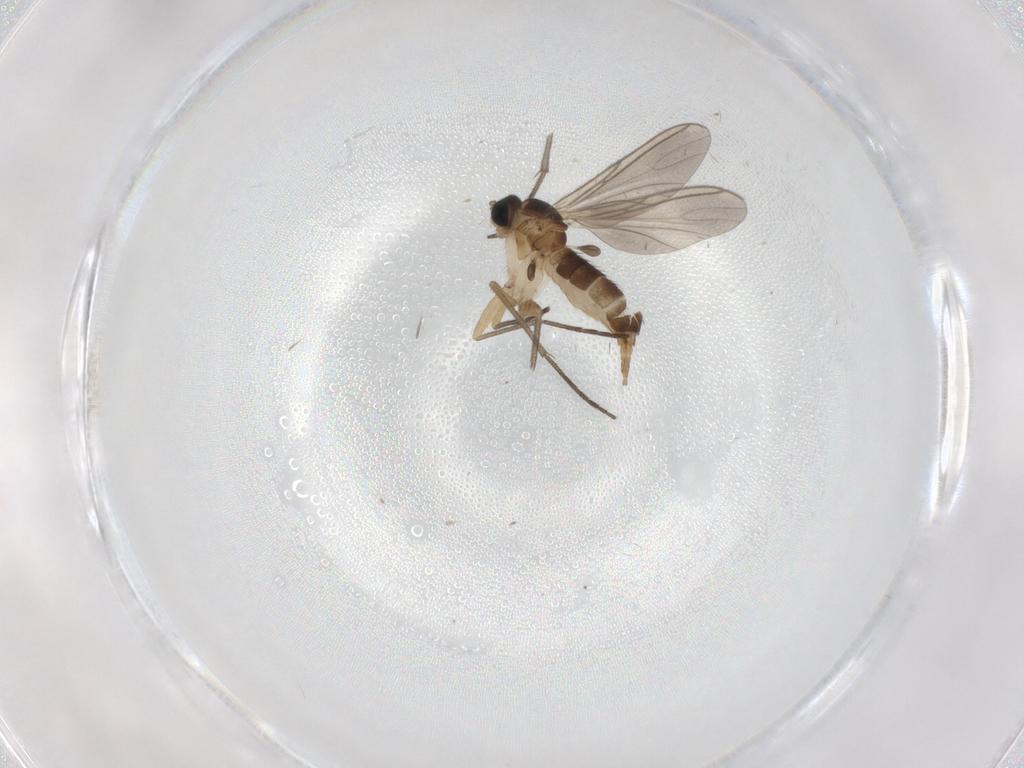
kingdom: Animalia
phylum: Arthropoda
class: Insecta
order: Diptera
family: Sciaridae
